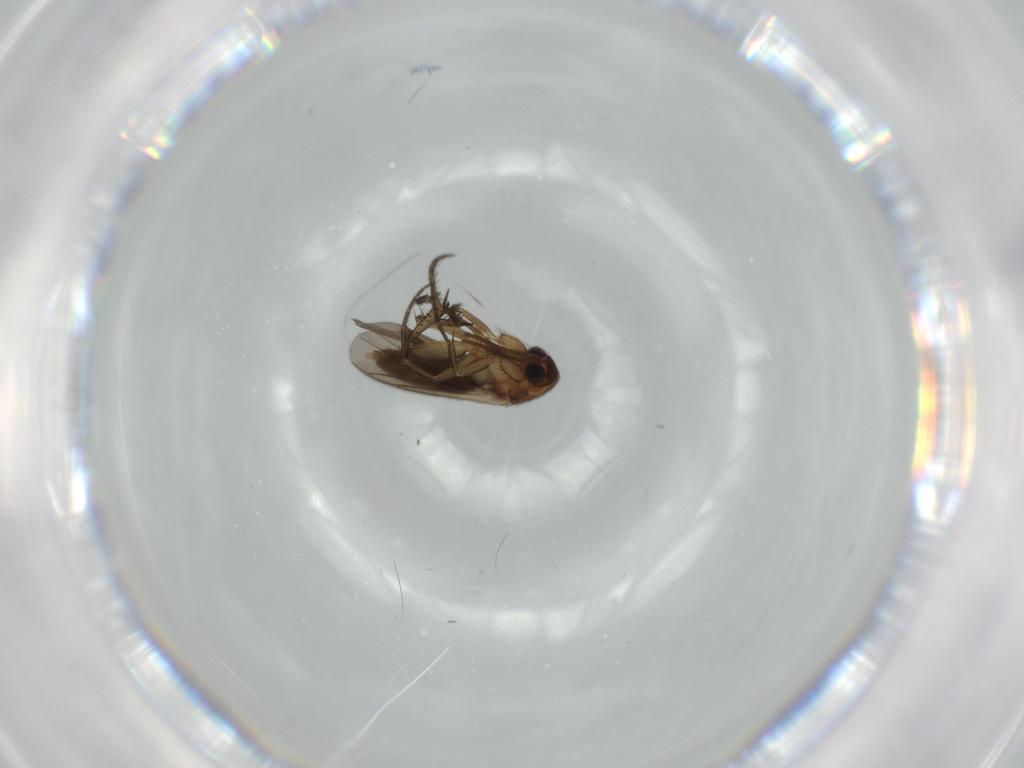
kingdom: Animalia
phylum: Arthropoda
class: Insecta
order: Diptera
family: Mycetophilidae
